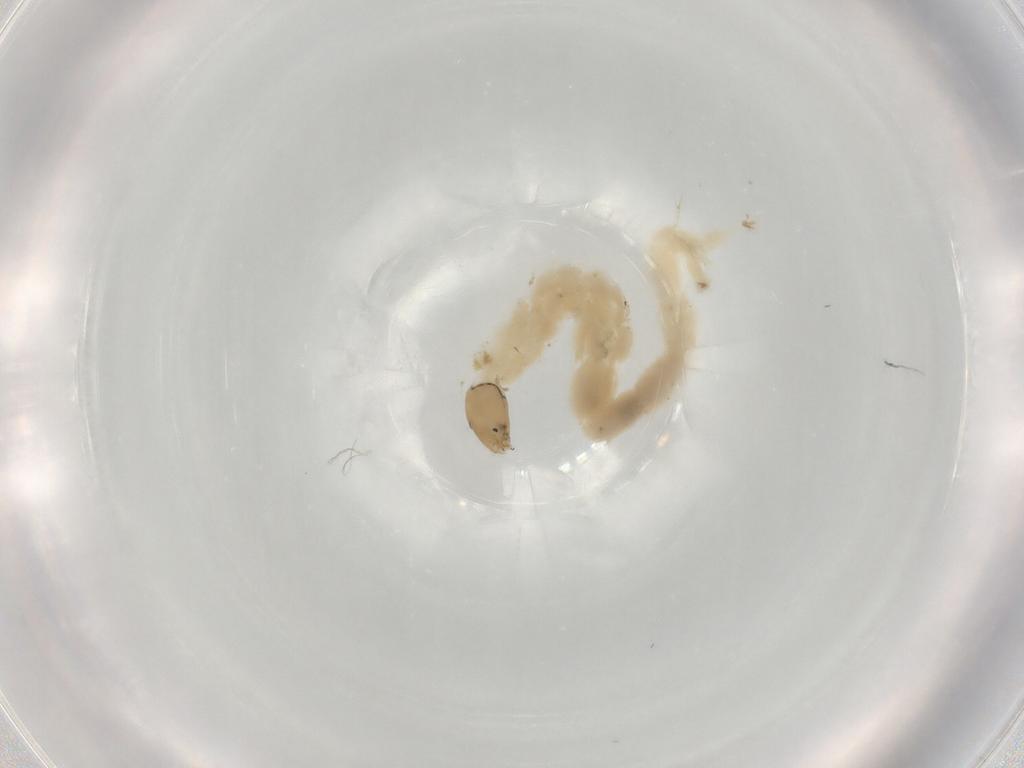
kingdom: Animalia
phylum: Arthropoda
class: Insecta
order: Diptera
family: Chironomidae
